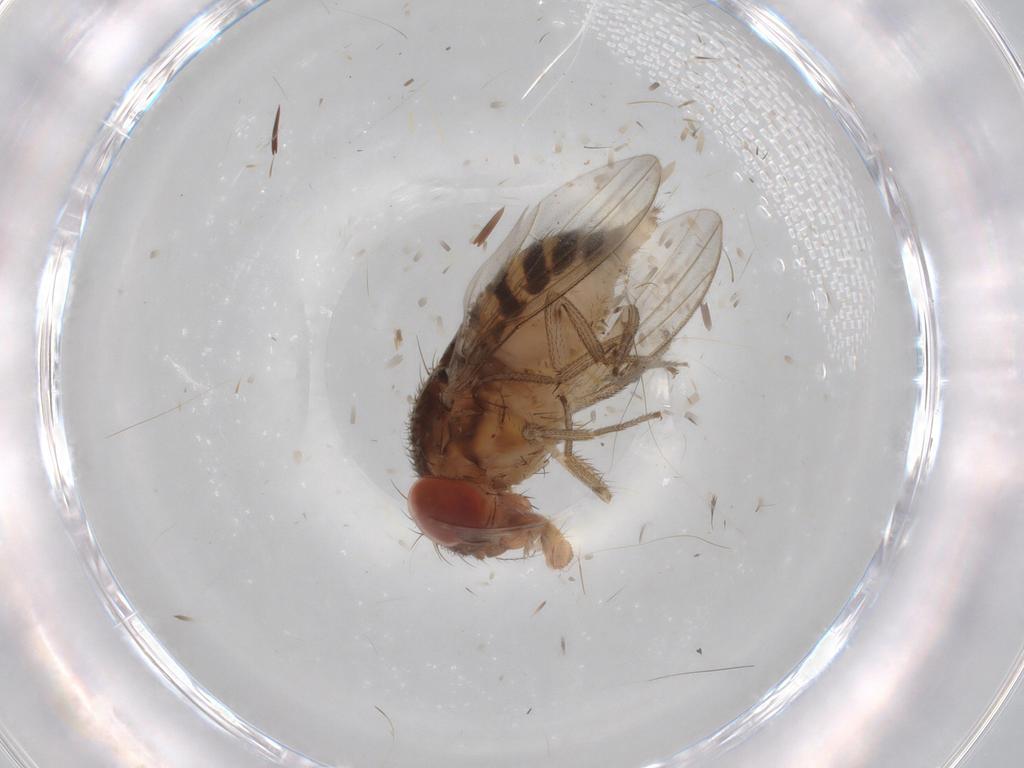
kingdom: Animalia
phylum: Arthropoda
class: Insecta
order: Diptera
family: Drosophilidae
